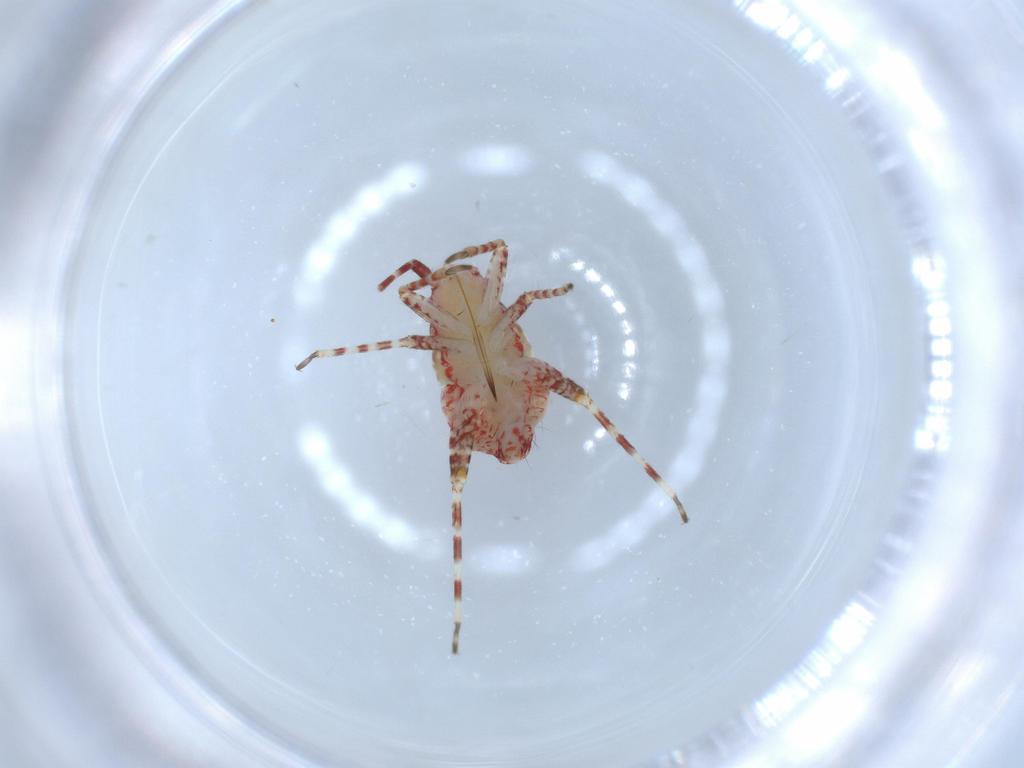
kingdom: Animalia
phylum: Arthropoda
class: Insecta
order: Hemiptera
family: Miridae
